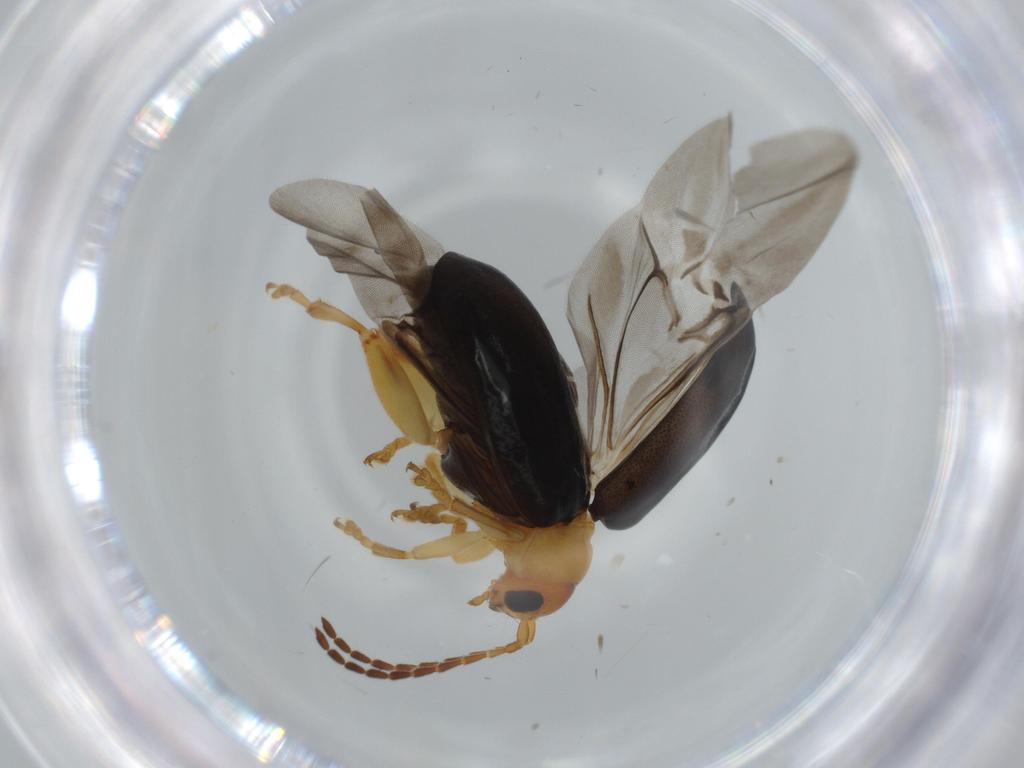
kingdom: Animalia
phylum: Arthropoda
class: Insecta
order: Coleoptera
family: Chrysomelidae
